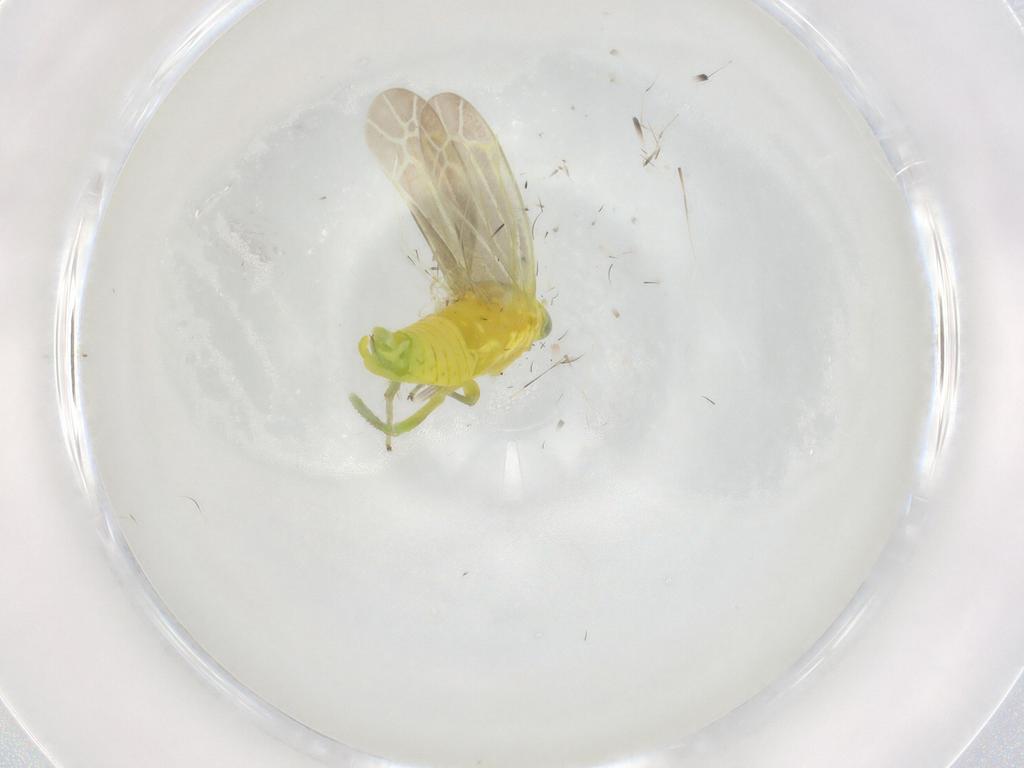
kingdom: Animalia
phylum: Arthropoda
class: Insecta
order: Hemiptera
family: Cicadellidae
